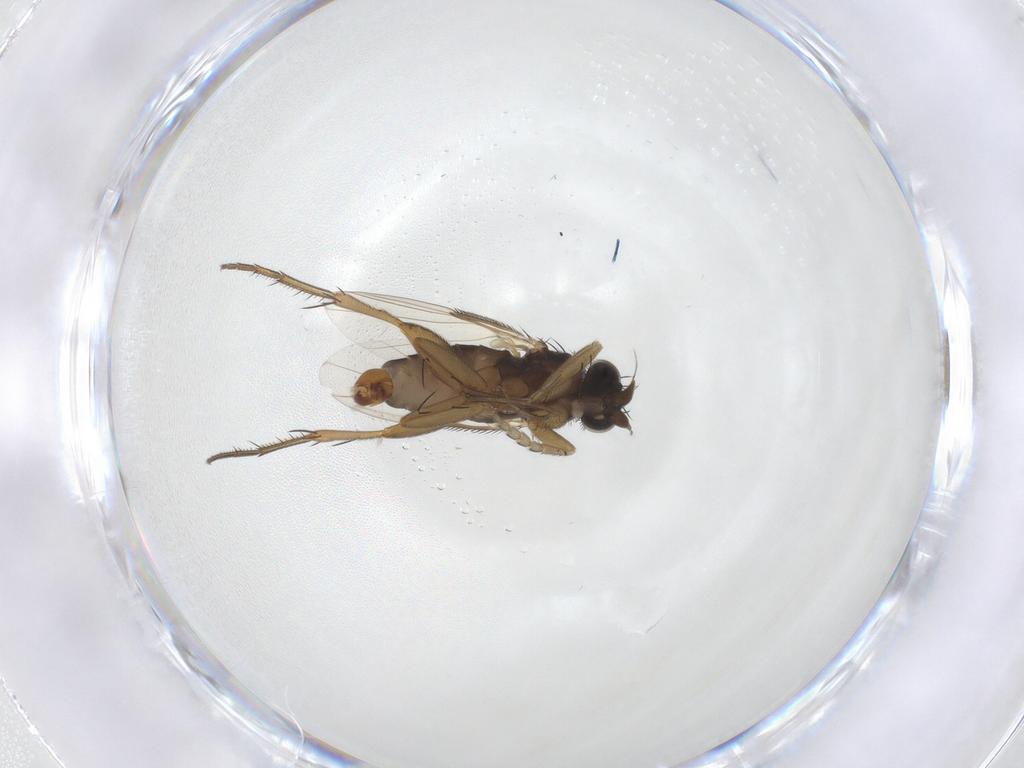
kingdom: Animalia
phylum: Arthropoda
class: Insecta
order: Diptera
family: Phoridae
